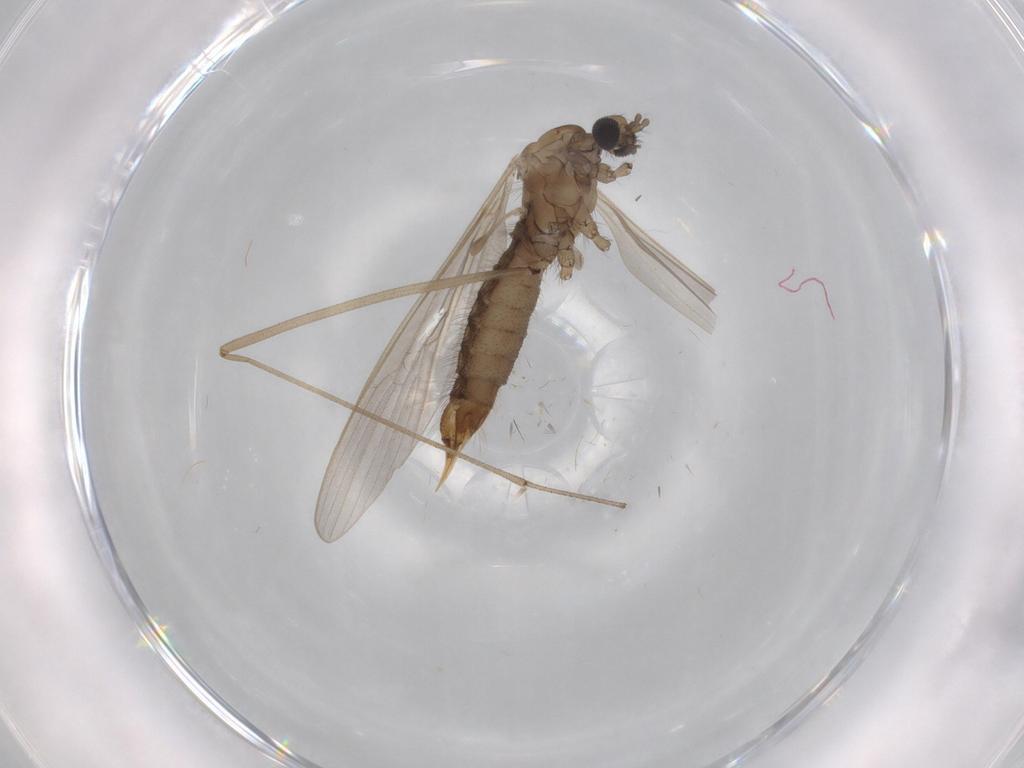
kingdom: Animalia
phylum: Arthropoda
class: Insecta
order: Diptera
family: Limoniidae
